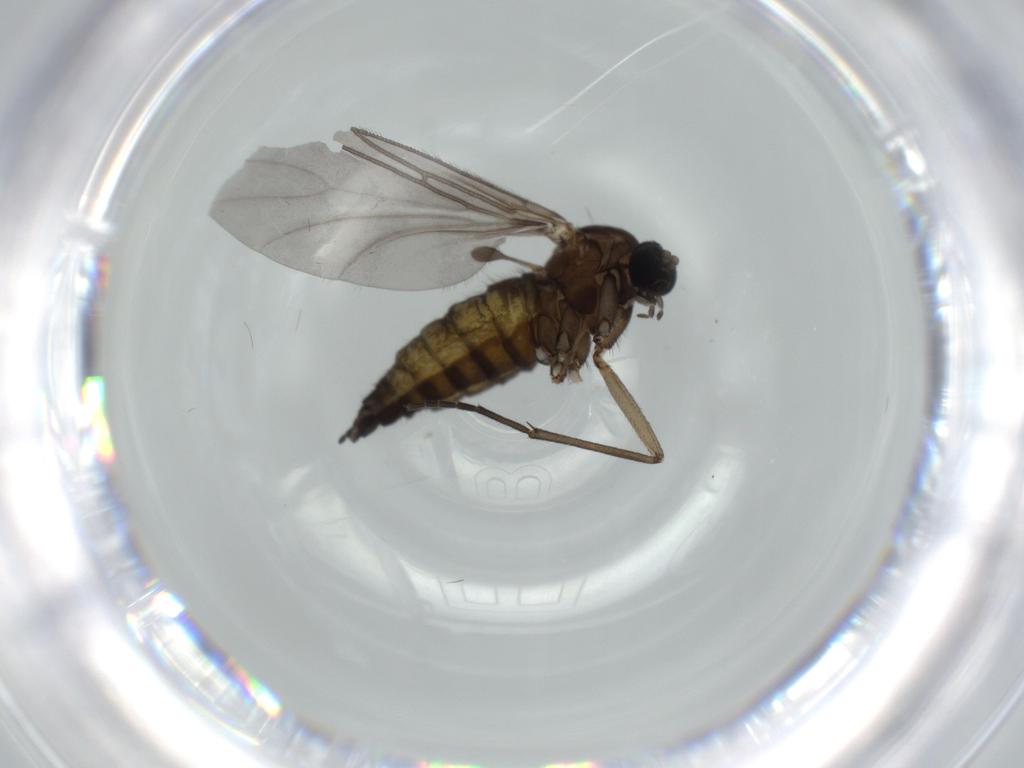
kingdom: Animalia
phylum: Arthropoda
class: Insecta
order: Diptera
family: Sciaridae
